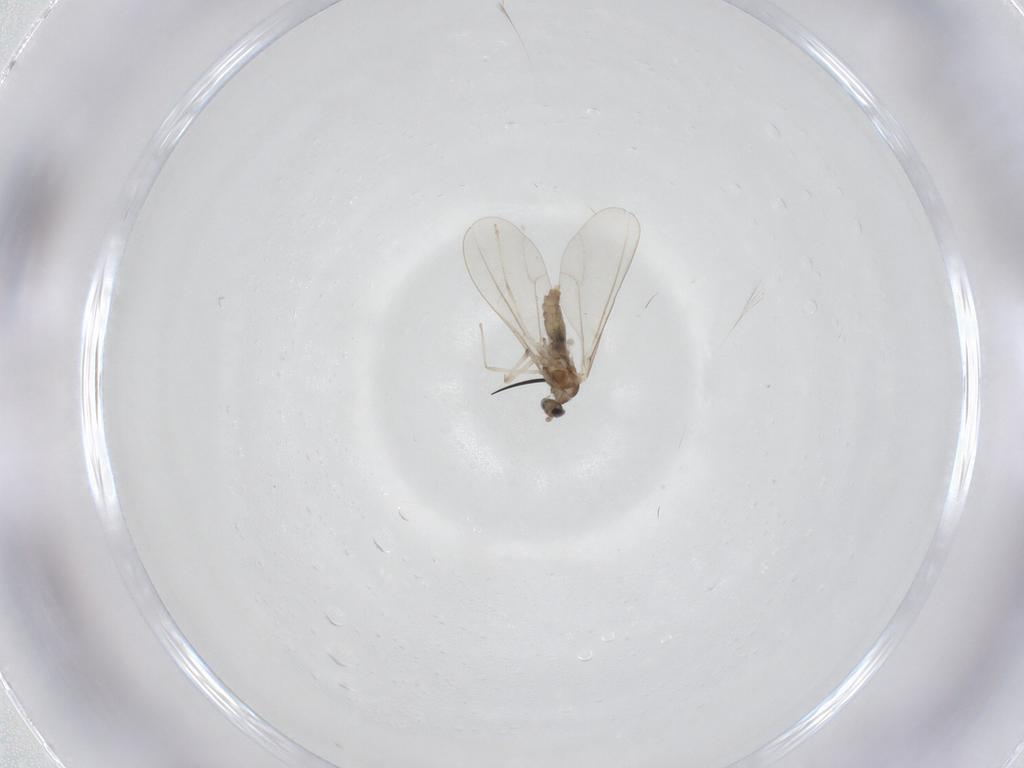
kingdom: Animalia
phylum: Arthropoda
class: Insecta
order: Diptera
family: Cecidomyiidae
